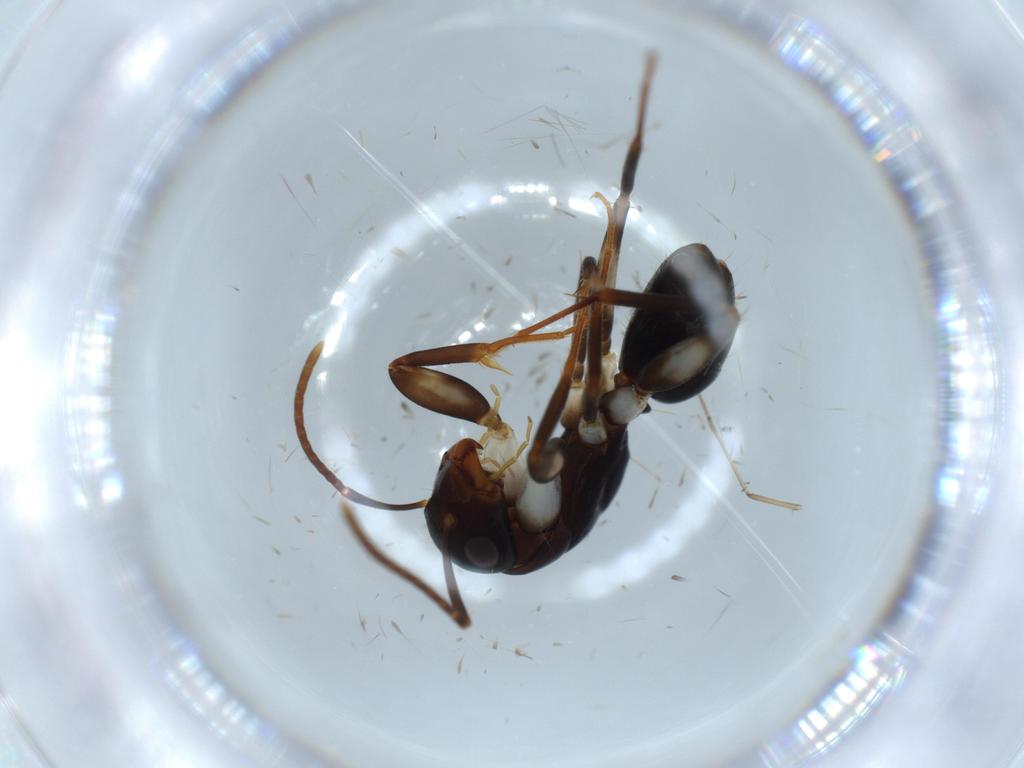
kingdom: Animalia
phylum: Arthropoda
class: Insecta
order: Hymenoptera
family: Formicidae
